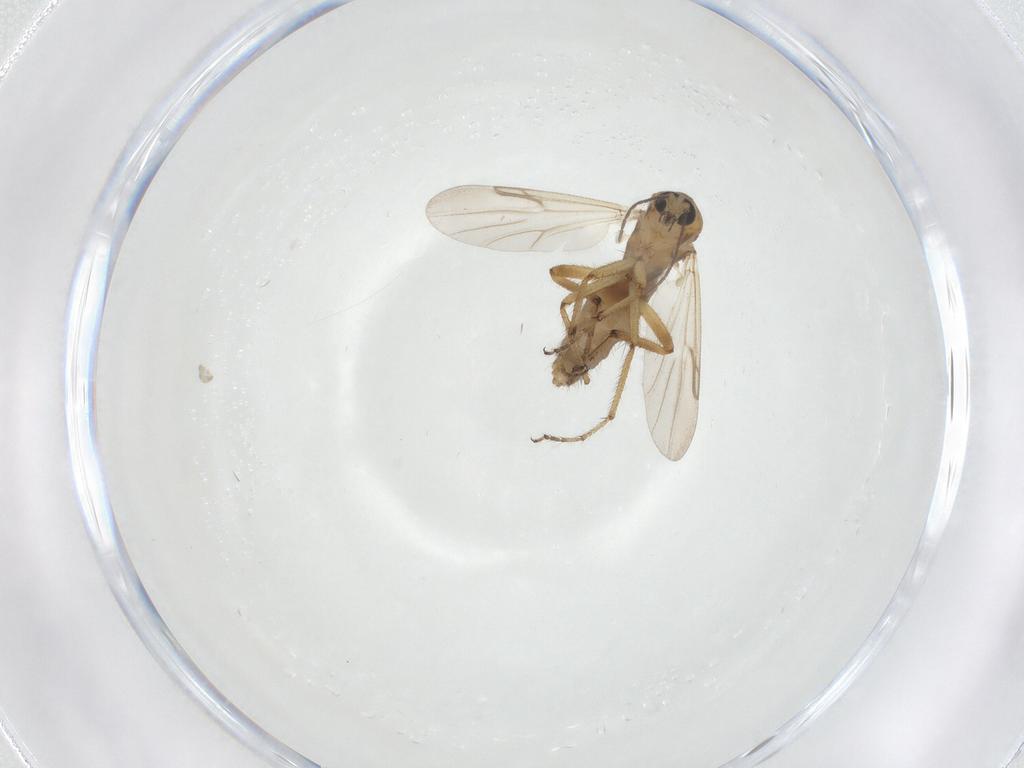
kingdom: Animalia
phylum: Arthropoda
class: Insecta
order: Diptera
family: Ceratopogonidae
